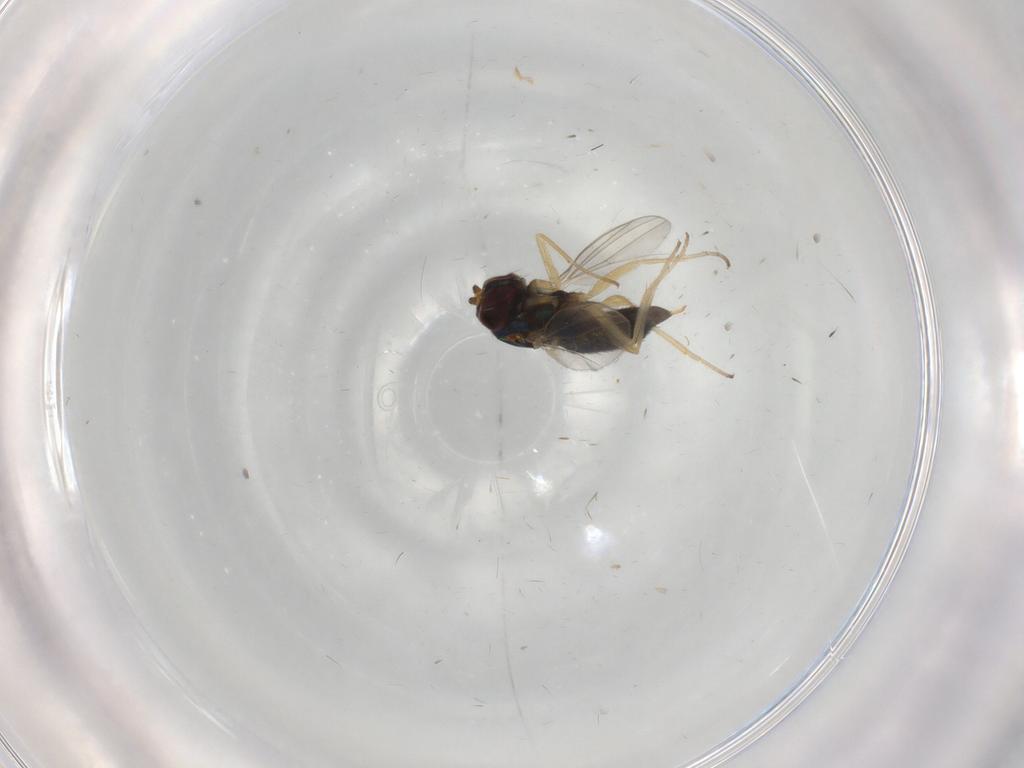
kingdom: Animalia
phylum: Arthropoda
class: Insecta
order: Diptera
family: Dolichopodidae
